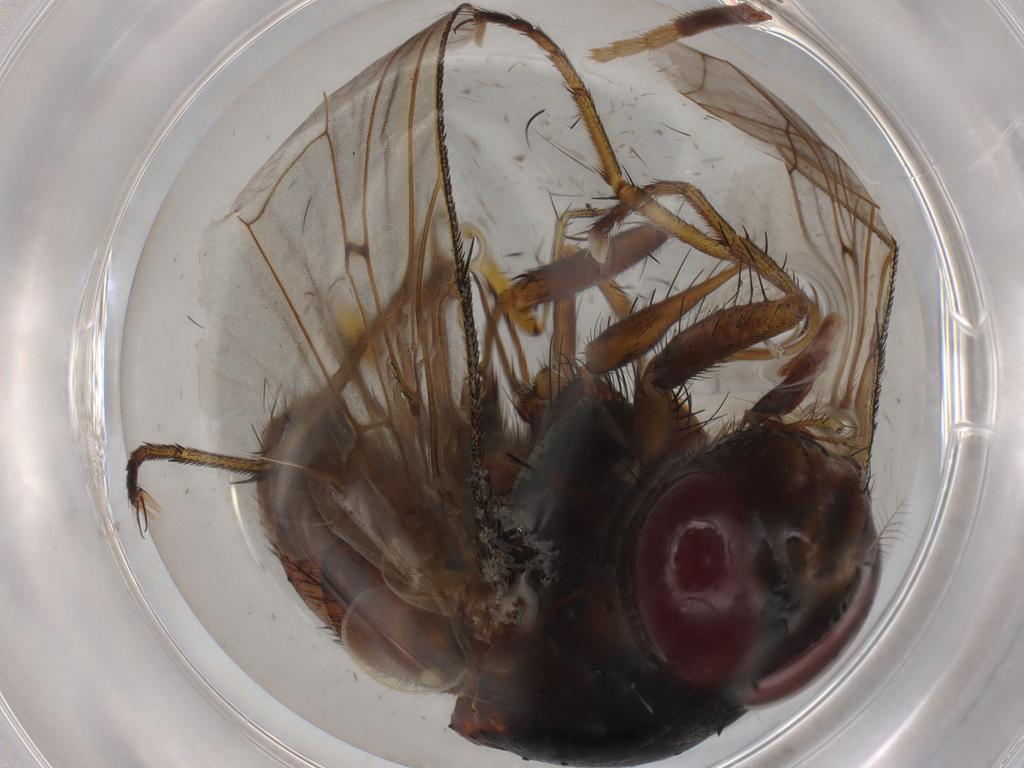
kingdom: Animalia
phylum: Arthropoda
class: Insecta
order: Diptera
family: Tachinidae
